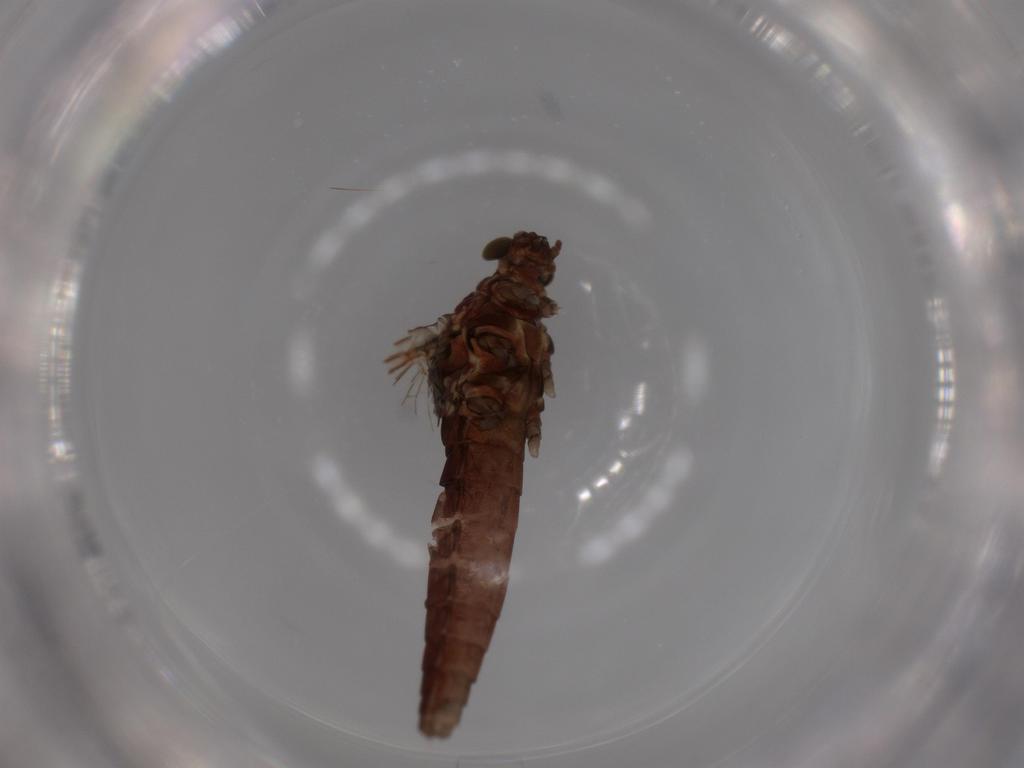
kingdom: Animalia
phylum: Arthropoda
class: Insecta
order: Ephemeroptera
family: Baetidae
